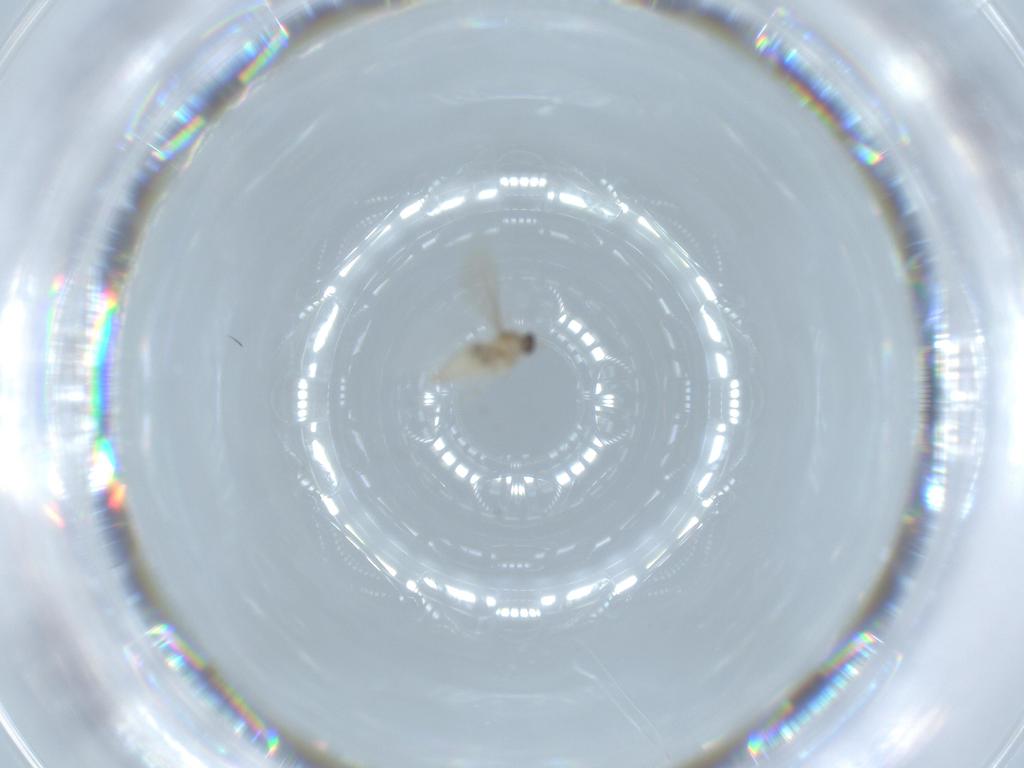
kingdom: Animalia
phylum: Arthropoda
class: Insecta
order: Diptera
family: Cecidomyiidae
